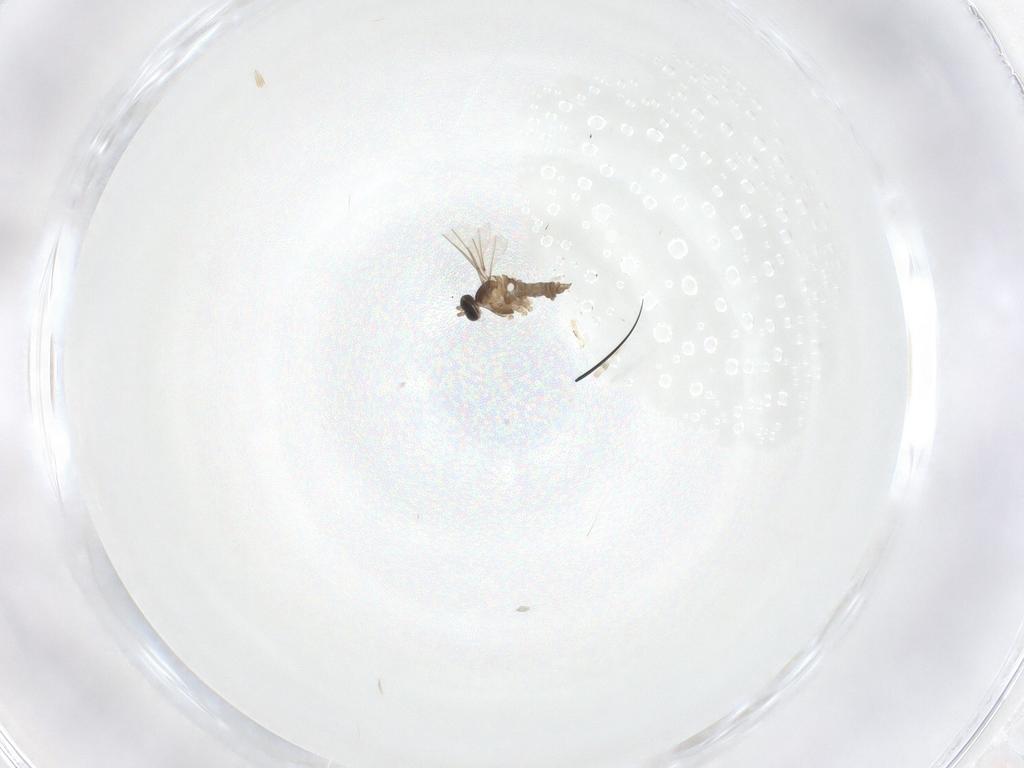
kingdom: Animalia
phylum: Arthropoda
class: Insecta
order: Diptera
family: Cecidomyiidae
